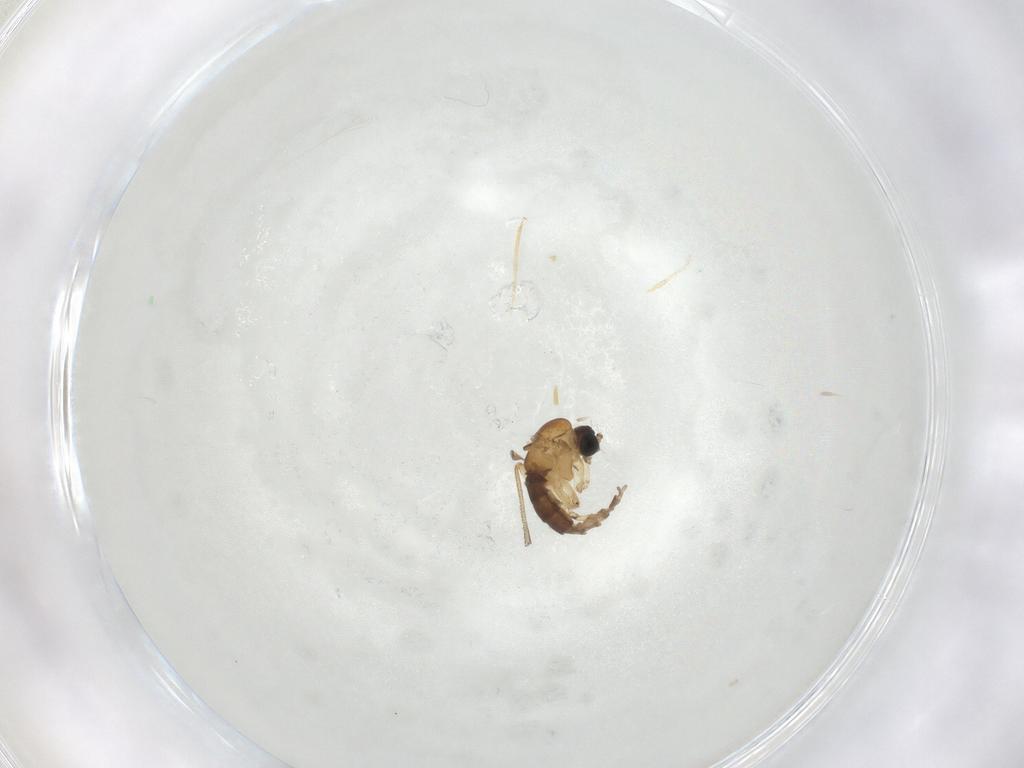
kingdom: Animalia
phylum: Arthropoda
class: Insecta
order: Diptera
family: Sciaridae
